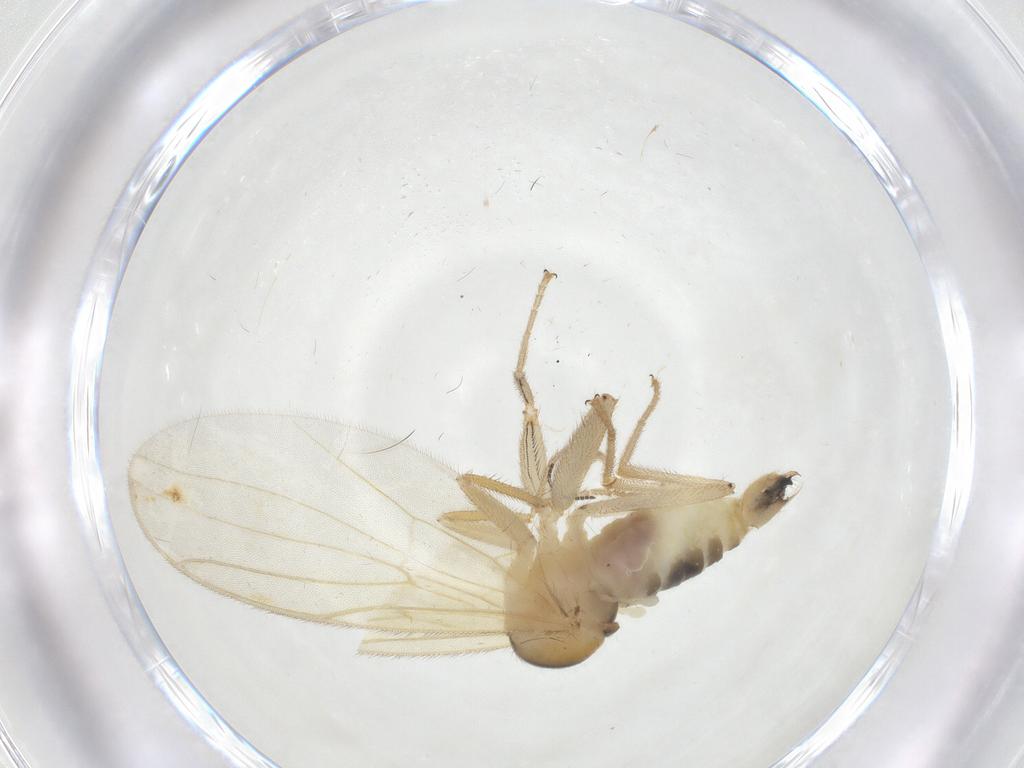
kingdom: Animalia
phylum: Arthropoda
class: Insecta
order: Diptera
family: Hybotidae
